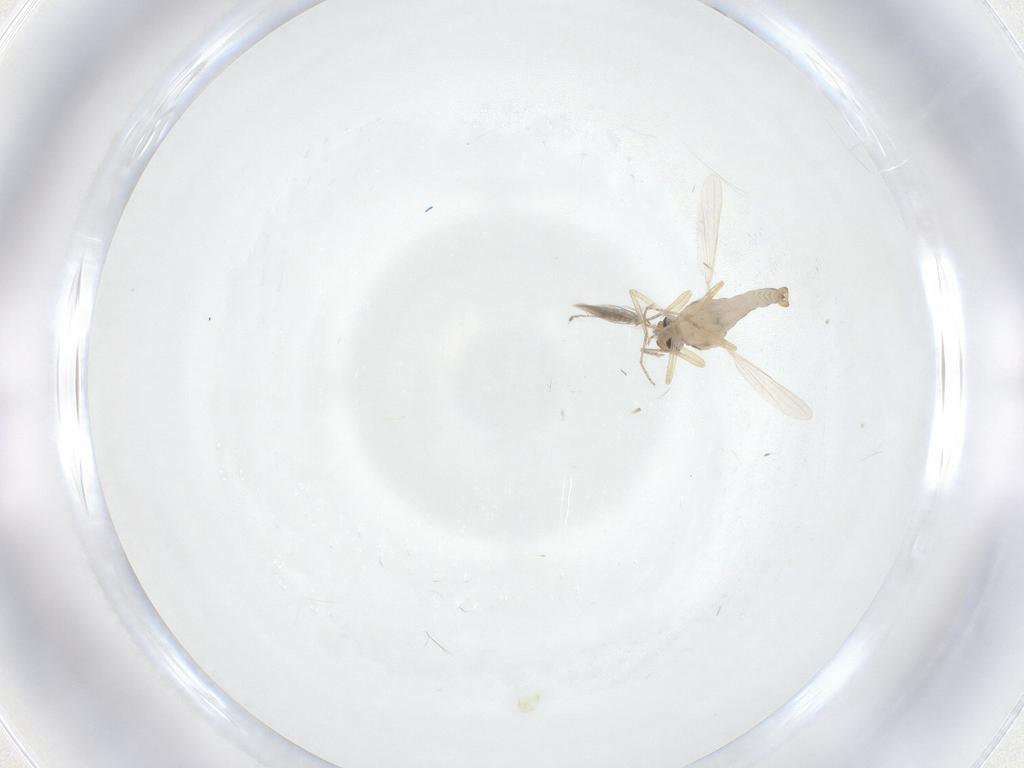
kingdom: Animalia
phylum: Arthropoda
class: Insecta
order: Diptera
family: Ceratopogonidae
